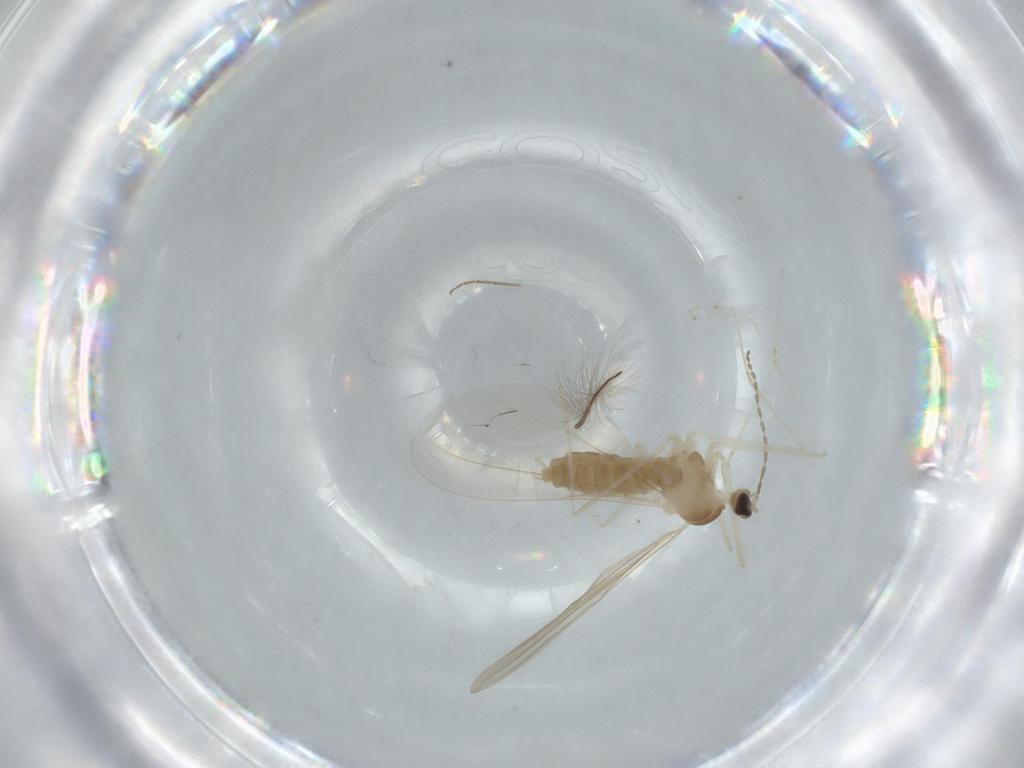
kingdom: Animalia
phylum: Arthropoda
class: Insecta
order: Diptera
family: Cecidomyiidae
